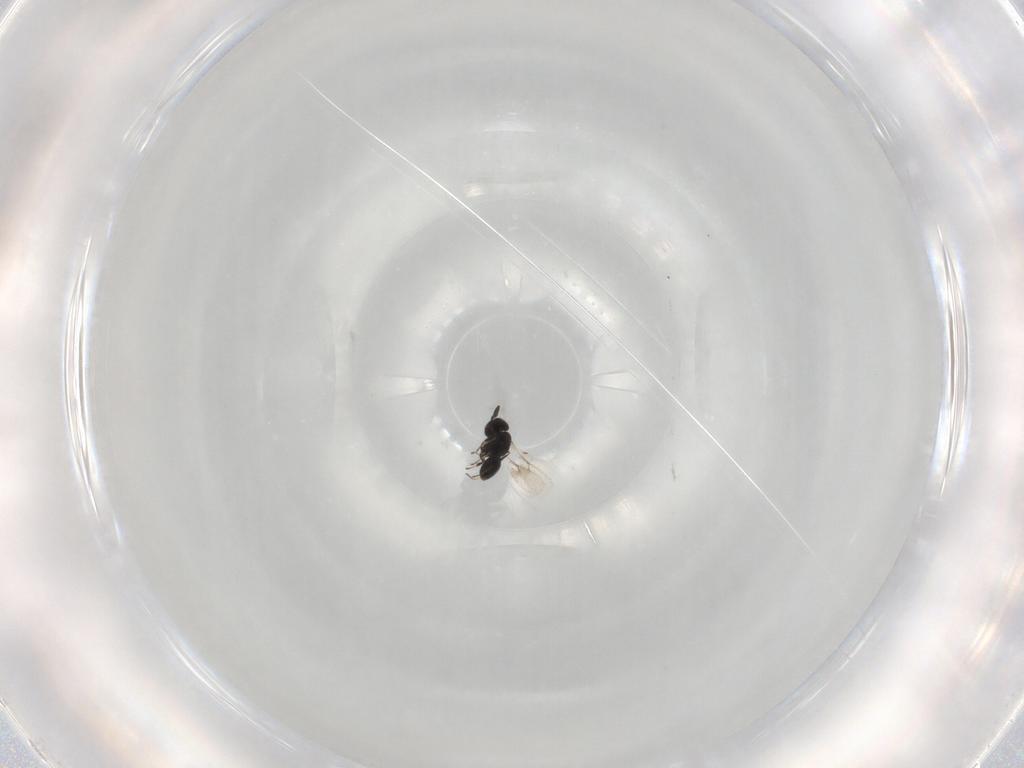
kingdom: Animalia
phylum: Arthropoda
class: Insecta
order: Hymenoptera
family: Scelionidae
